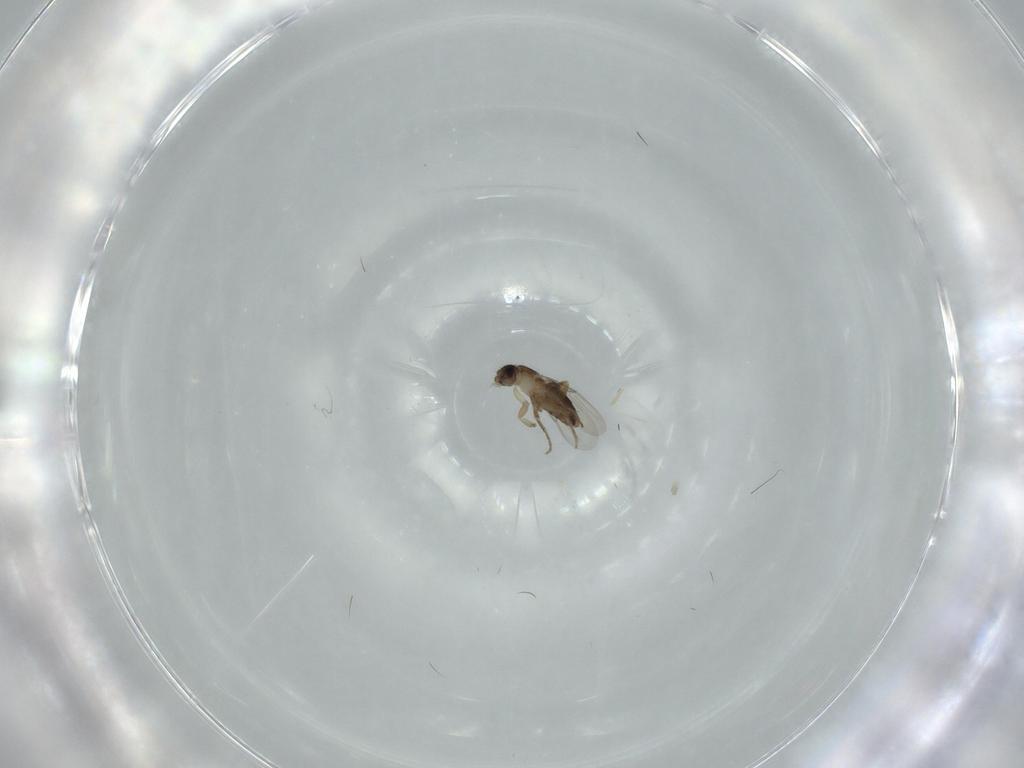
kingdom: Animalia
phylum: Arthropoda
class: Insecta
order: Diptera
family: Phoridae
